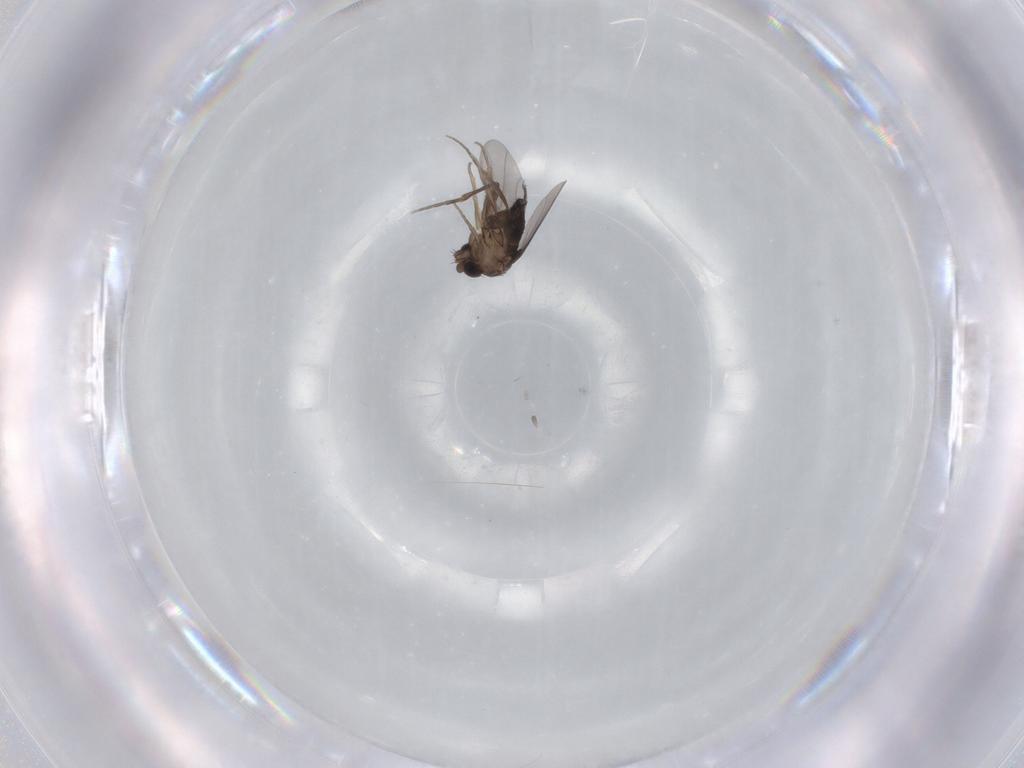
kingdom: Animalia
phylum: Arthropoda
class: Insecta
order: Diptera
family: Phoridae
